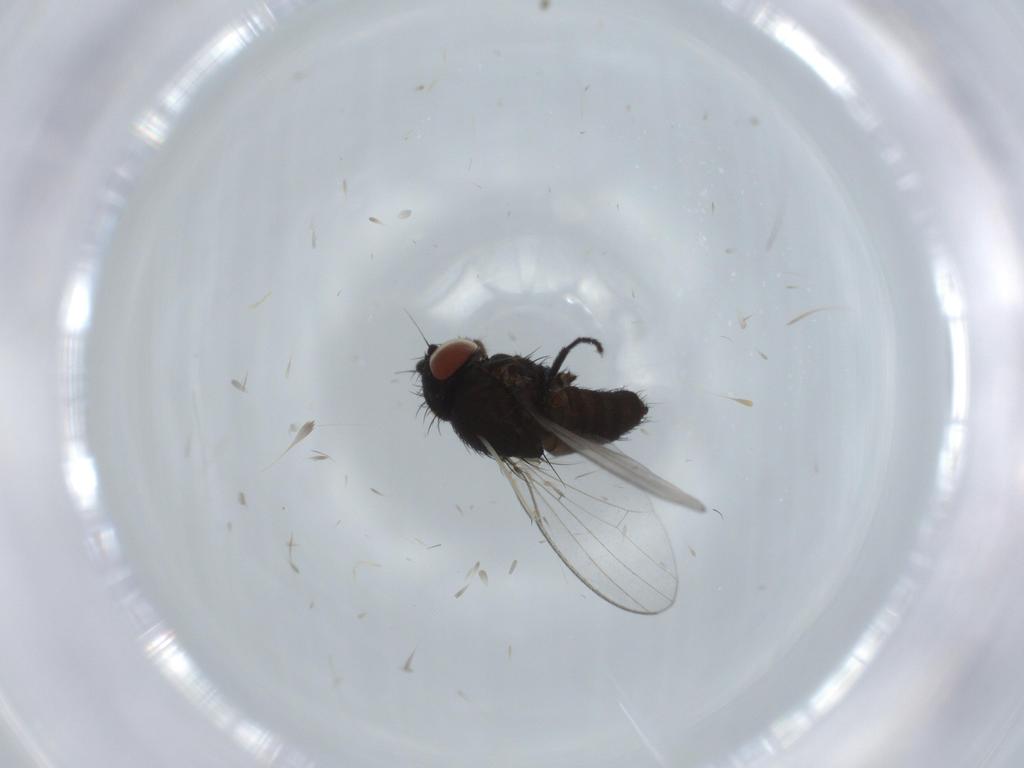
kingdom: Animalia
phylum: Arthropoda
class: Insecta
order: Diptera
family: Milichiidae
